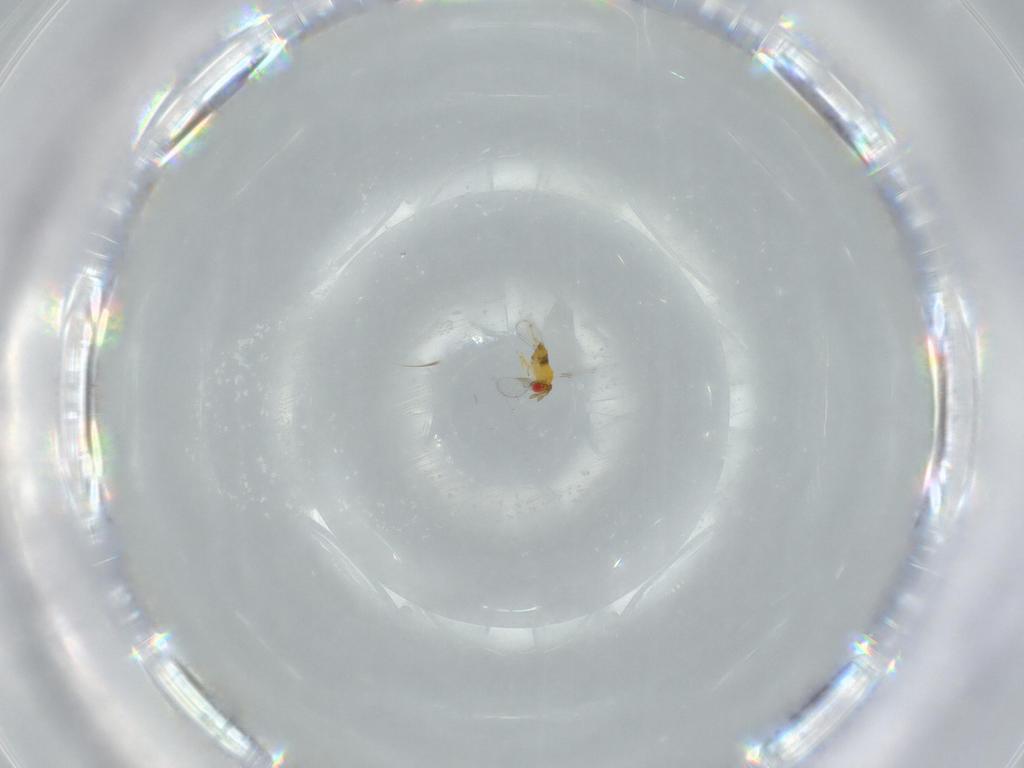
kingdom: Animalia
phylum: Arthropoda
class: Insecta
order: Hymenoptera
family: Trichogrammatidae
